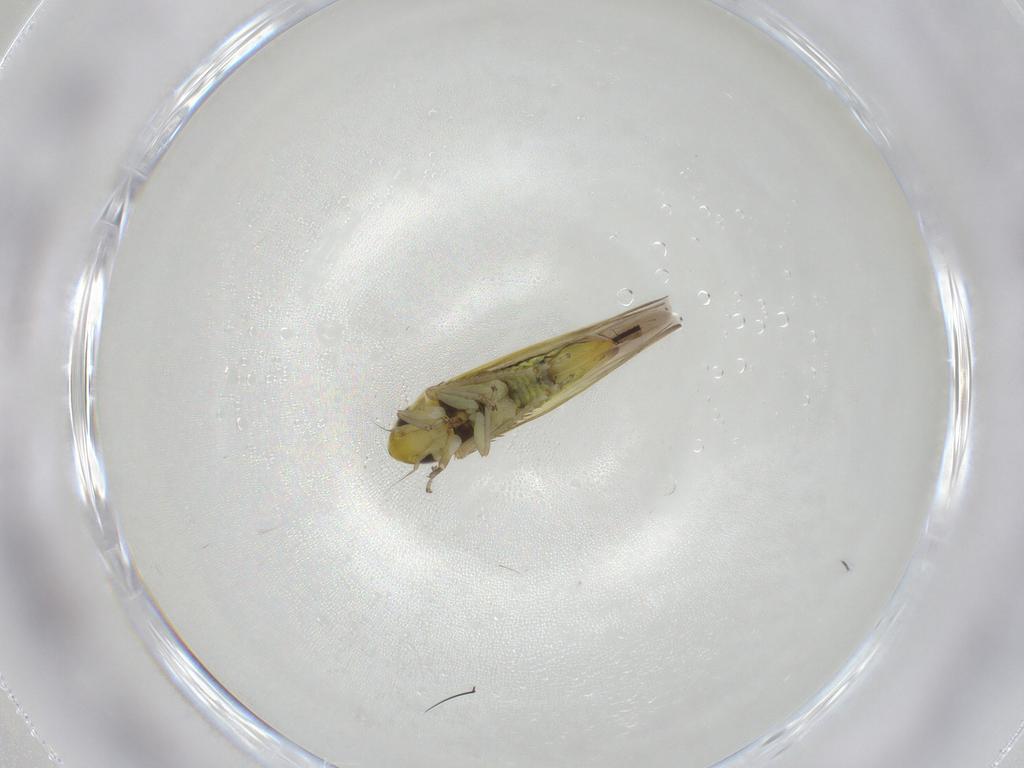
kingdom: Animalia
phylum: Arthropoda
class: Insecta
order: Hemiptera
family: Cicadellidae
